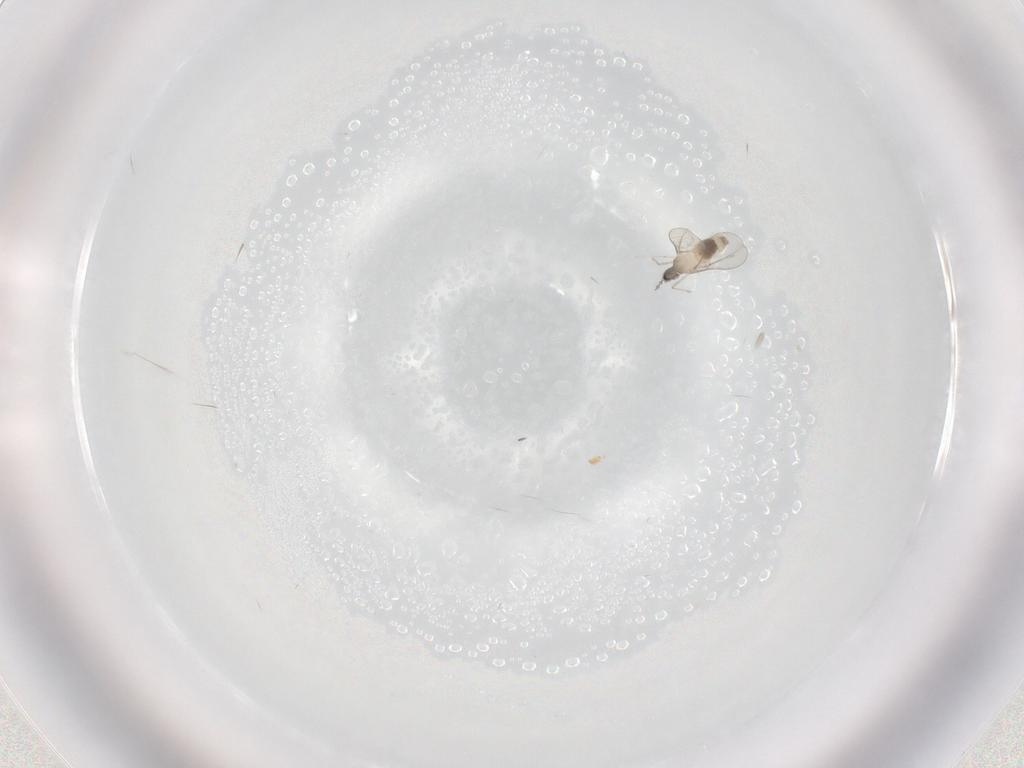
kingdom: Animalia
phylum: Arthropoda
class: Insecta
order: Diptera
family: Cecidomyiidae
